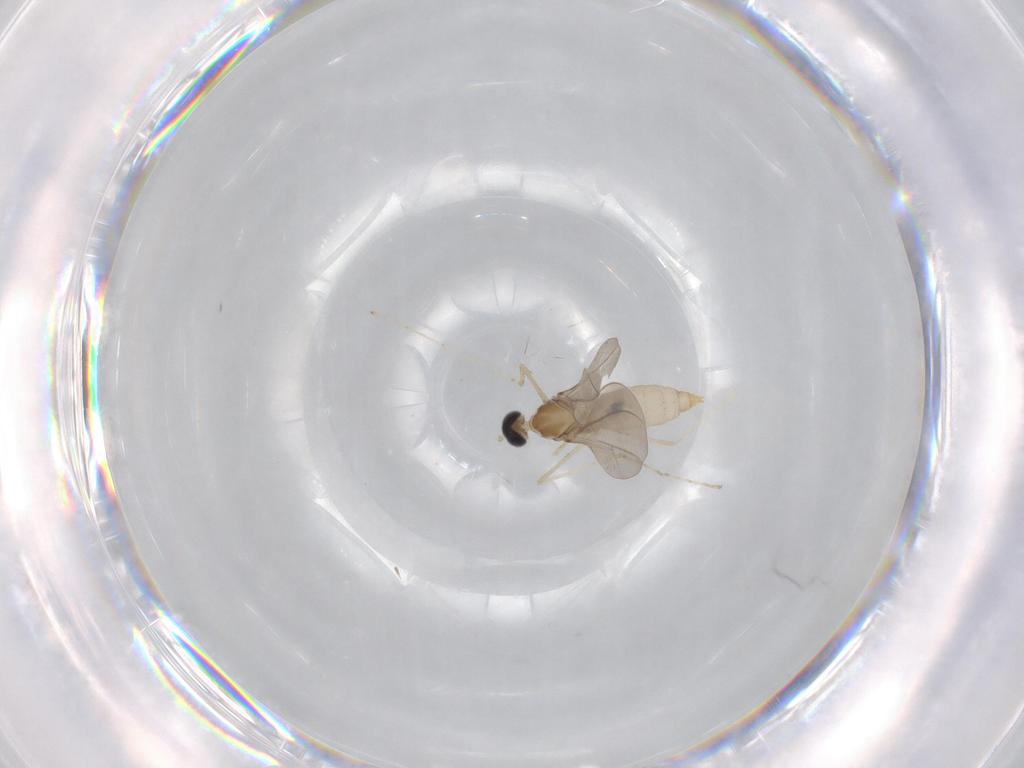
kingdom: Animalia
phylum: Arthropoda
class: Insecta
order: Diptera
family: Cecidomyiidae
